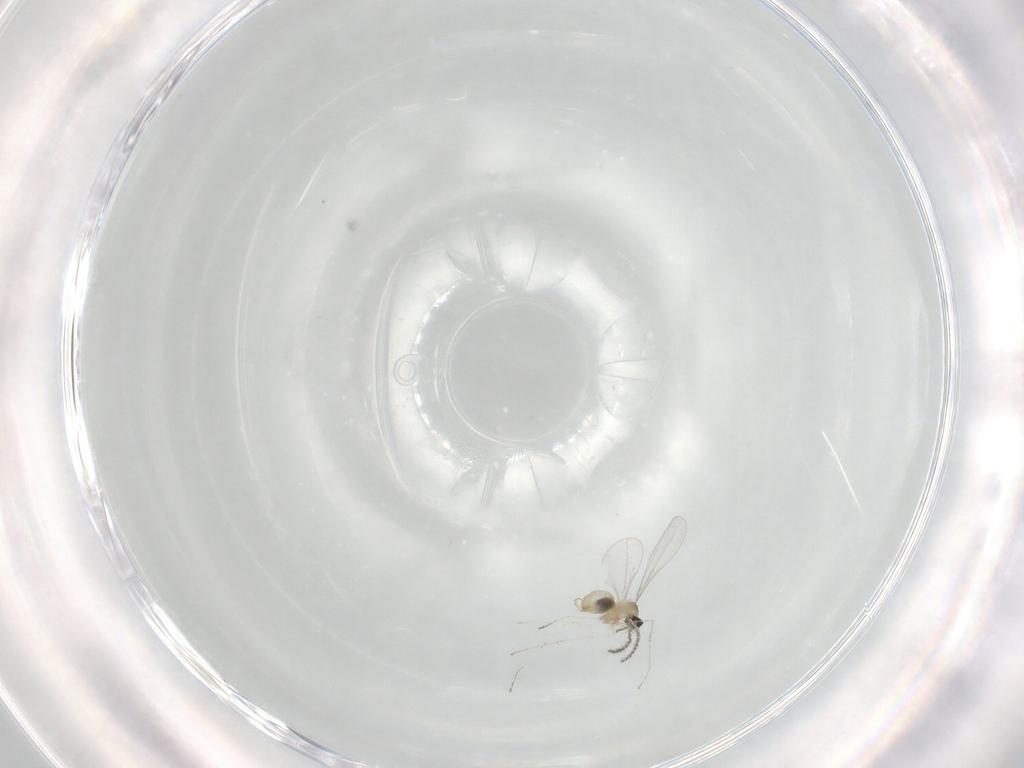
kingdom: Animalia
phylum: Arthropoda
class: Insecta
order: Diptera
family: Cecidomyiidae
